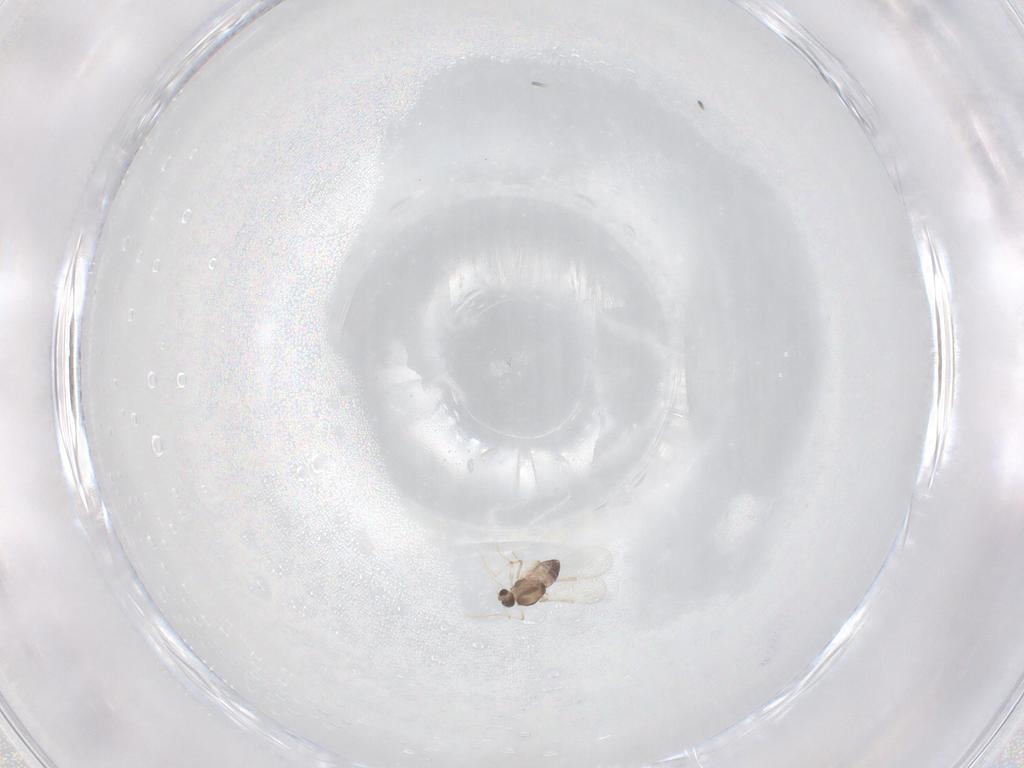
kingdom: Animalia
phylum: Arthropoda
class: Insecta
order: Diptera
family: Chironomidae
